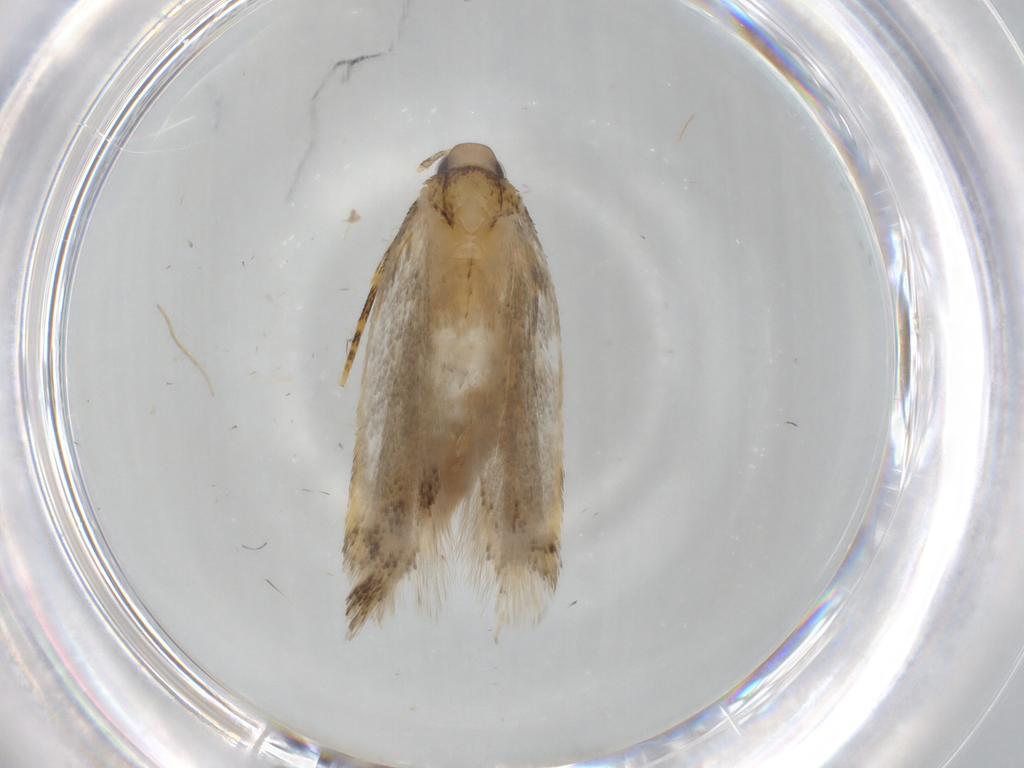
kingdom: Animalia
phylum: Arthropoda
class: Insecta
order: Lepidoptera
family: Autostichidae
